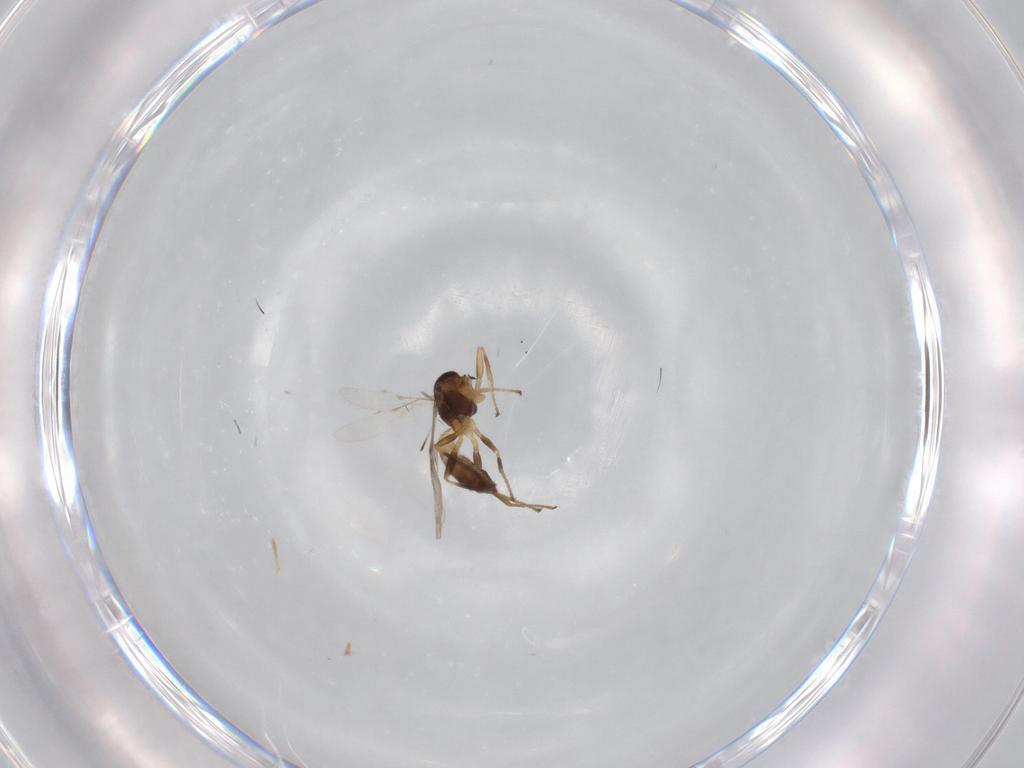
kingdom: Animalia
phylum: Arthropoda
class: Insecta
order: Hymenoptera
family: Braconidae
